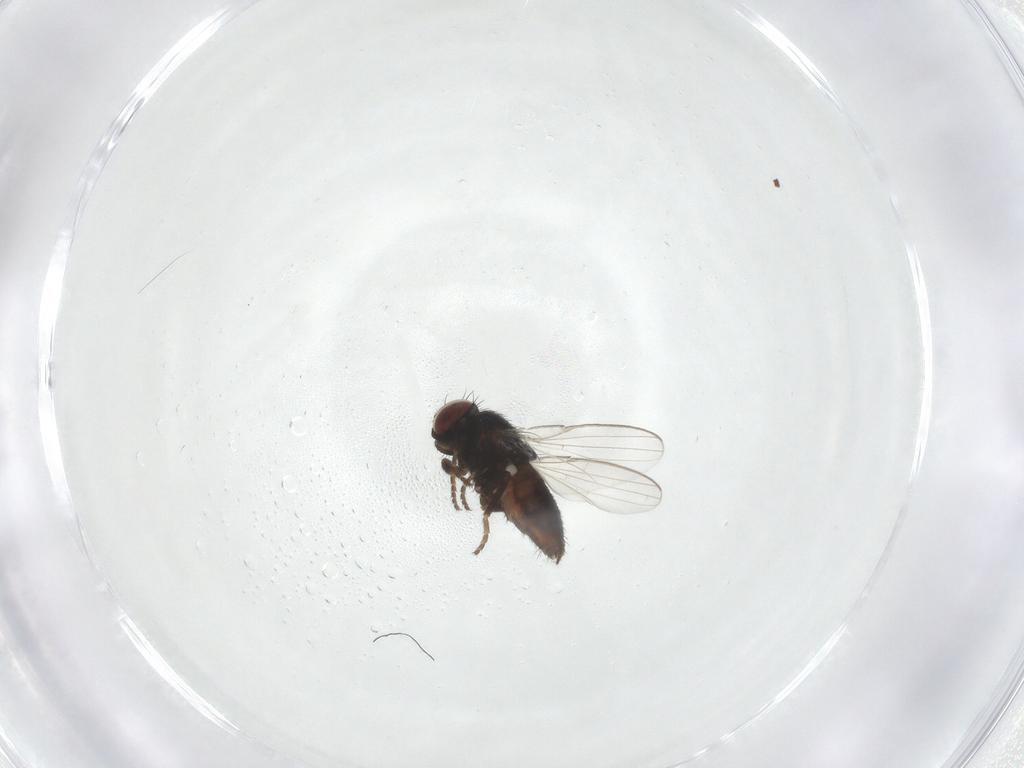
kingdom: Animalia
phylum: Arthropoda
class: Insecta
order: Diptera
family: Milichiidae
